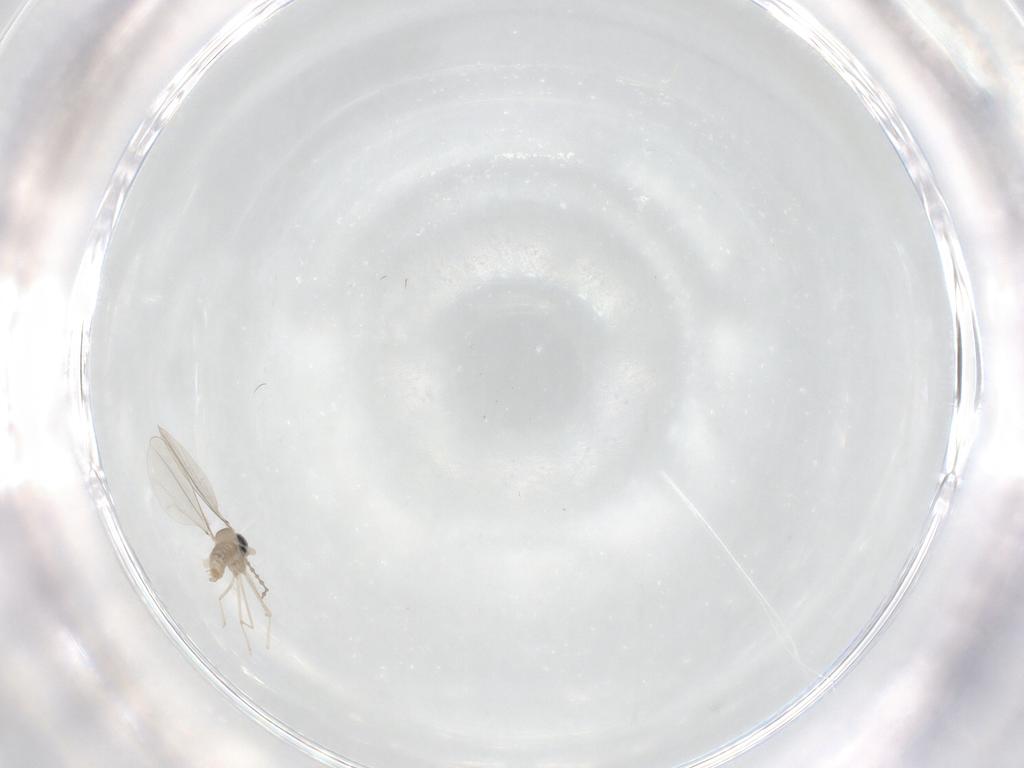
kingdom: Animalia
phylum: Arthropoda
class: Insecta
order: Diptera
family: Cecidomyiidae
